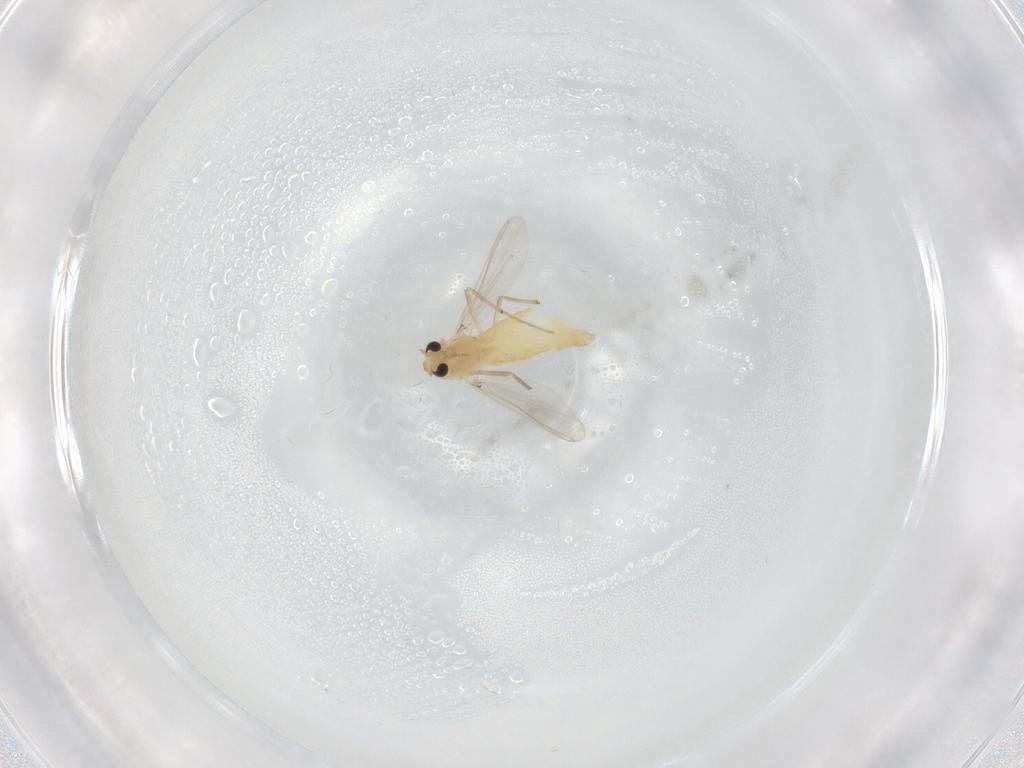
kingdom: Animalia
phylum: Arthropoda
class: Insecta
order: Diptera
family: Chironomidae
